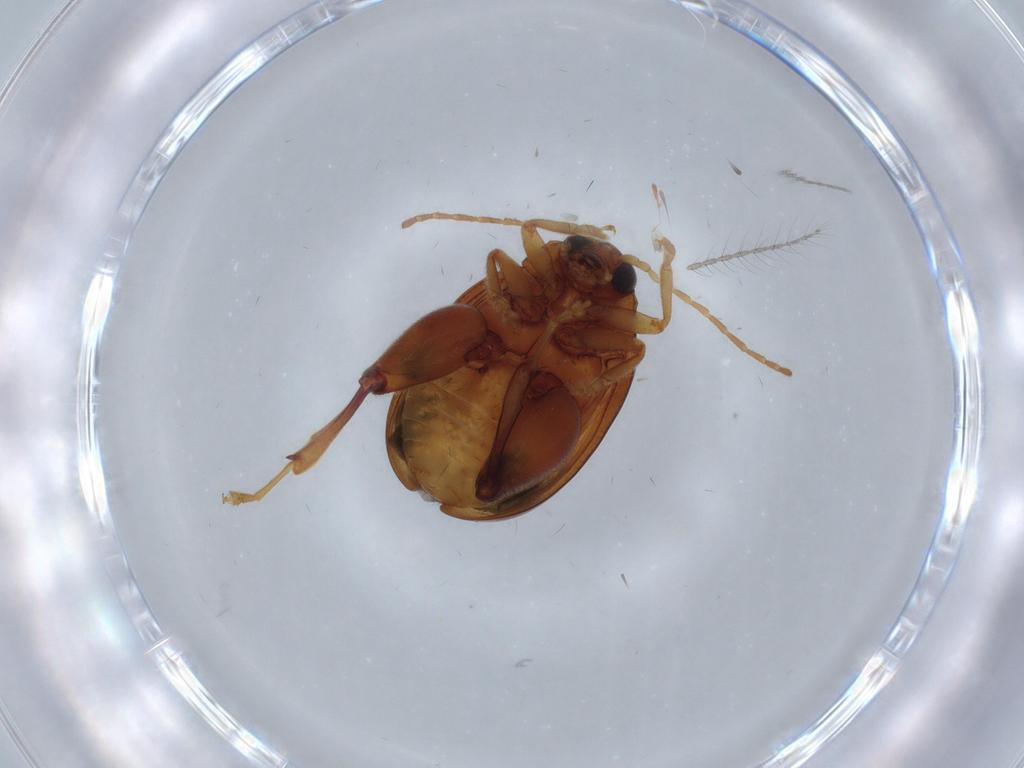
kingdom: Animalia
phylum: Arthropoda
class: Insecta
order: Coleoptera
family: Chrysomelidae
